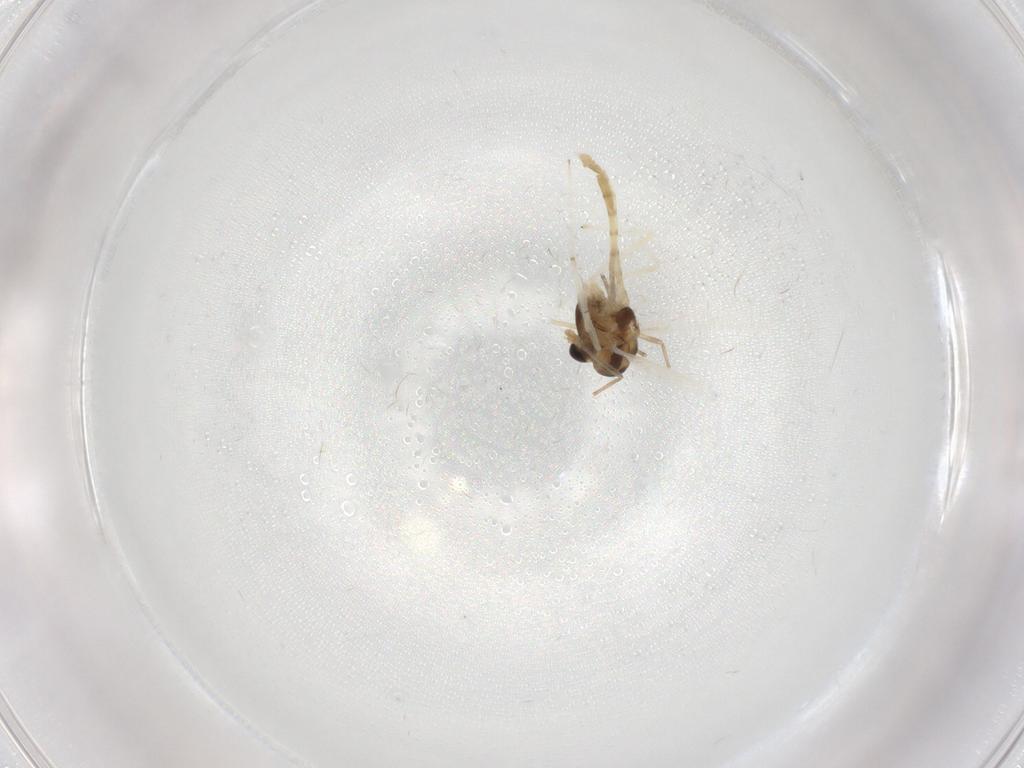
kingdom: Animalia
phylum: Arthropoda
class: Insecta
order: Diptera
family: Chironomidae
